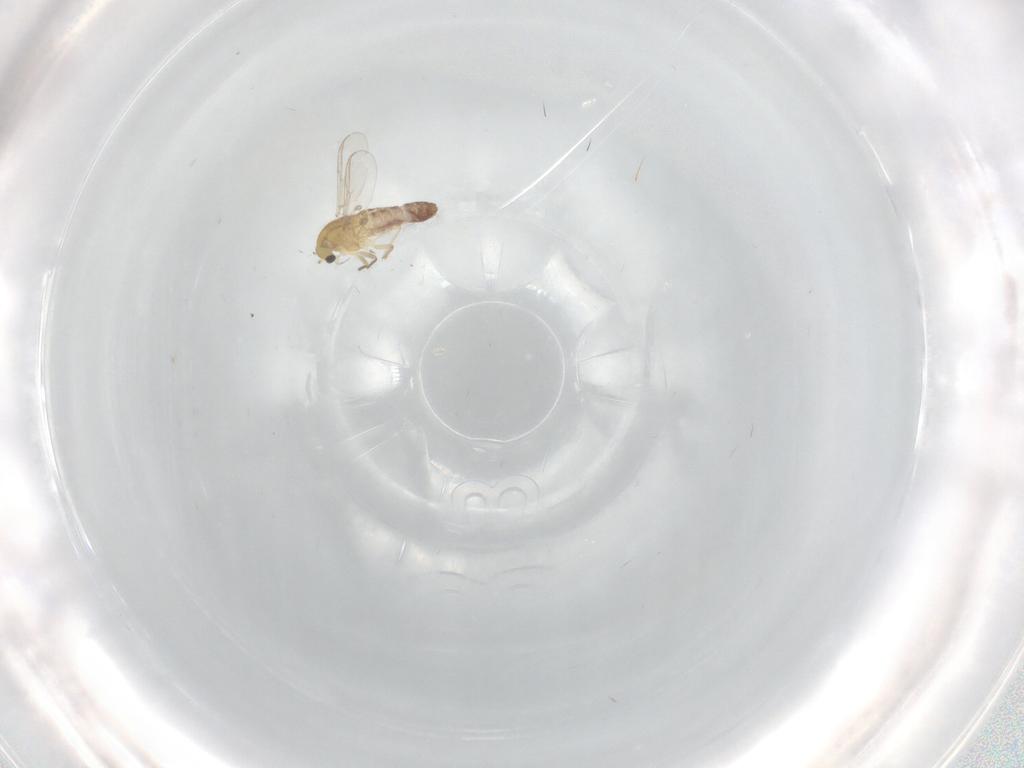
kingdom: Animalia
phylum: Arthropoda
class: Insecta
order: Diptera
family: Chironomidae
